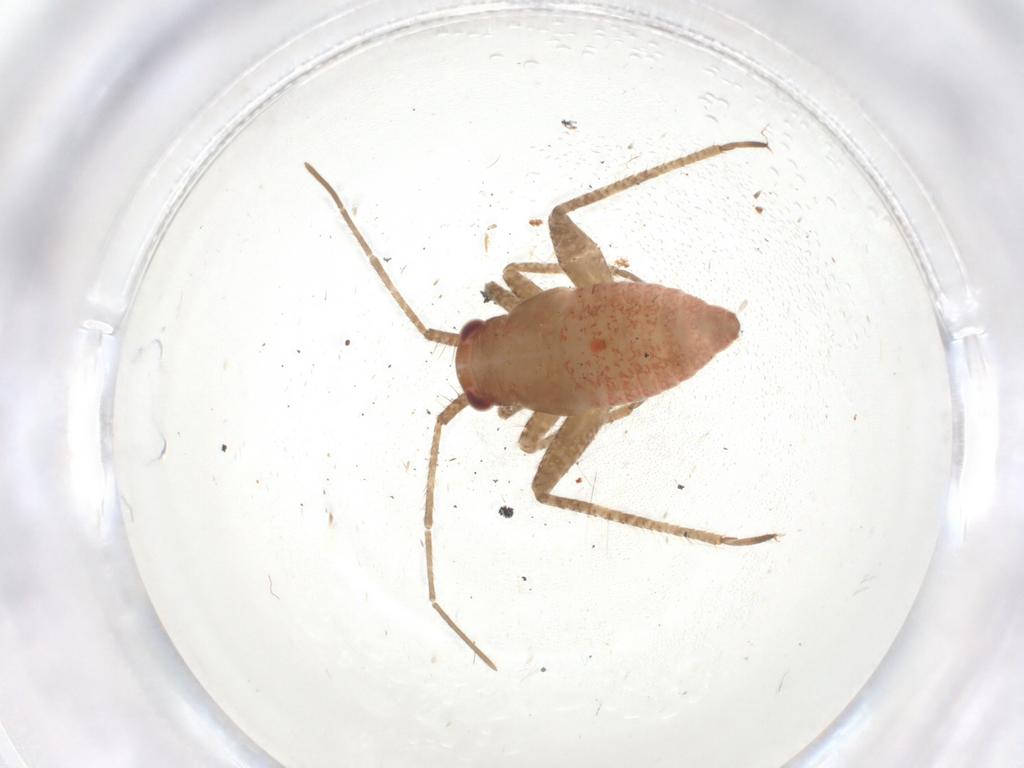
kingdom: Animalia
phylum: Arthropoda
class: Insecta
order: Hemiptera
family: Miridae
